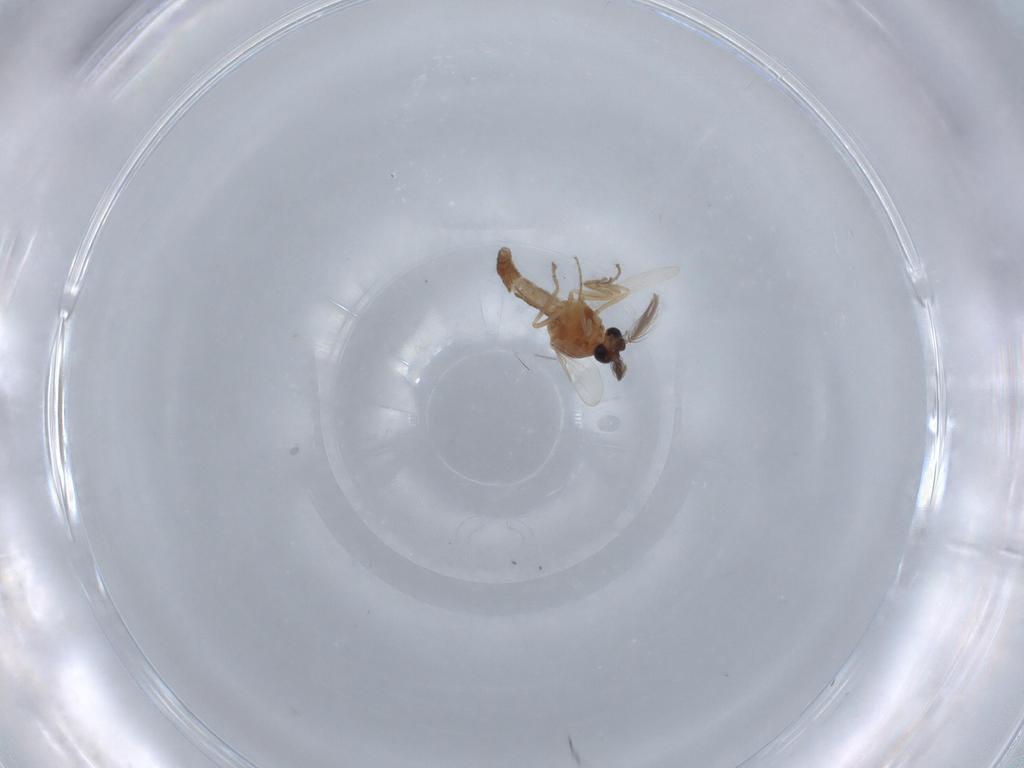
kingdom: Animalia
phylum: Arthropoda
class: Insecta
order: Diptera
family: Ceratopogonidae
